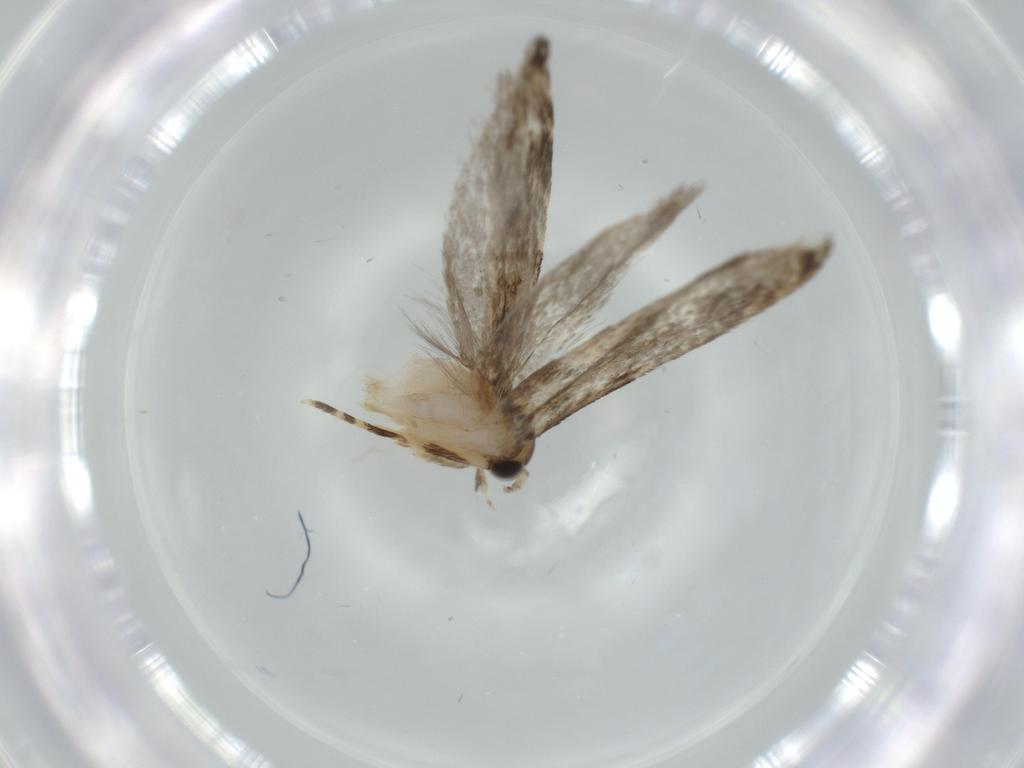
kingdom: Animalia
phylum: Arthropoda
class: Insecta
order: Lepidoptera
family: Tineidae
